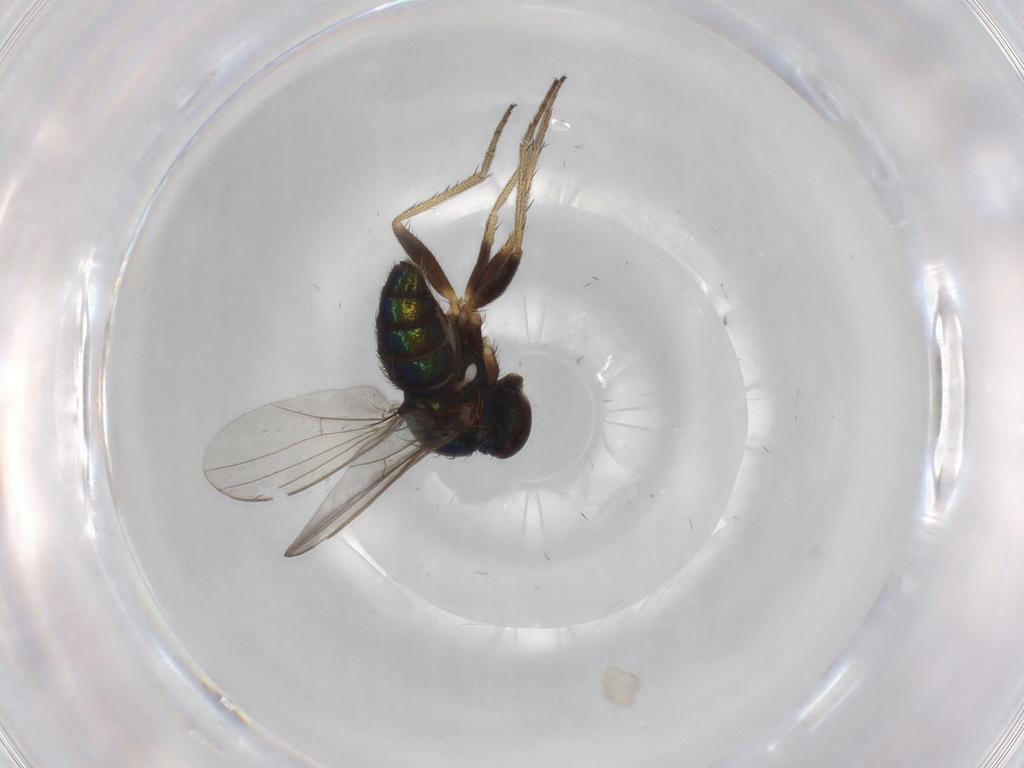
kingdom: Animalia
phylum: Arthropoda
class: Insecta
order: Diptera
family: Dolichopodidae
